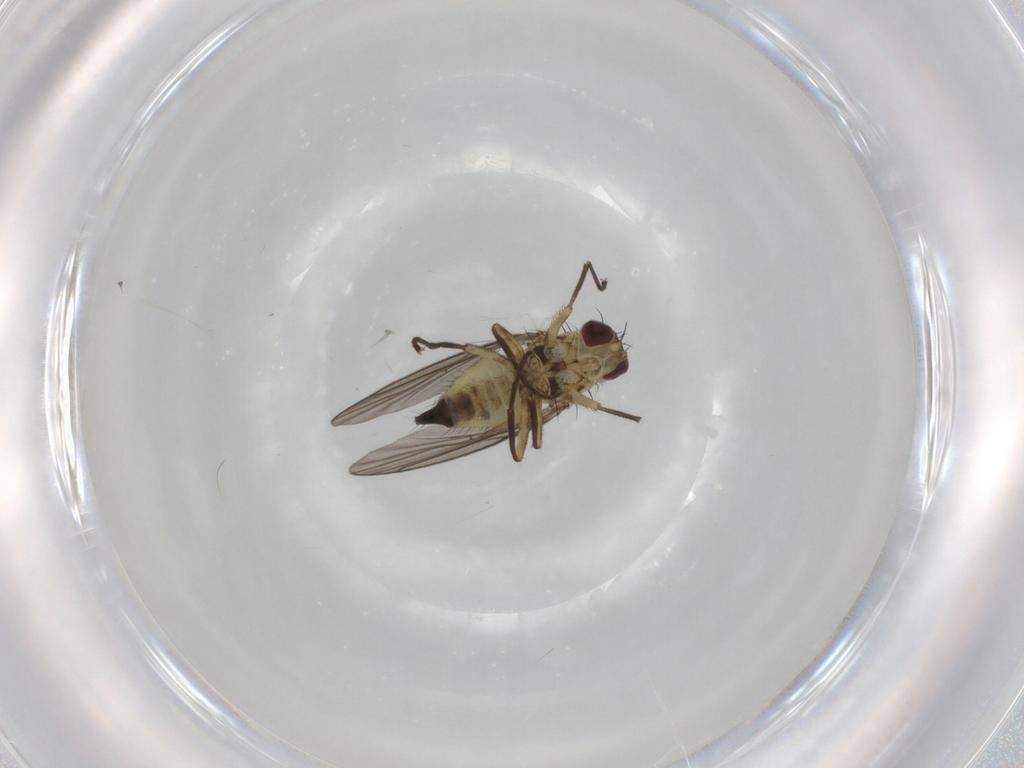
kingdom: Animalia
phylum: Arthropoda
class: Insecta
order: Diptera
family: Agromyzidae
